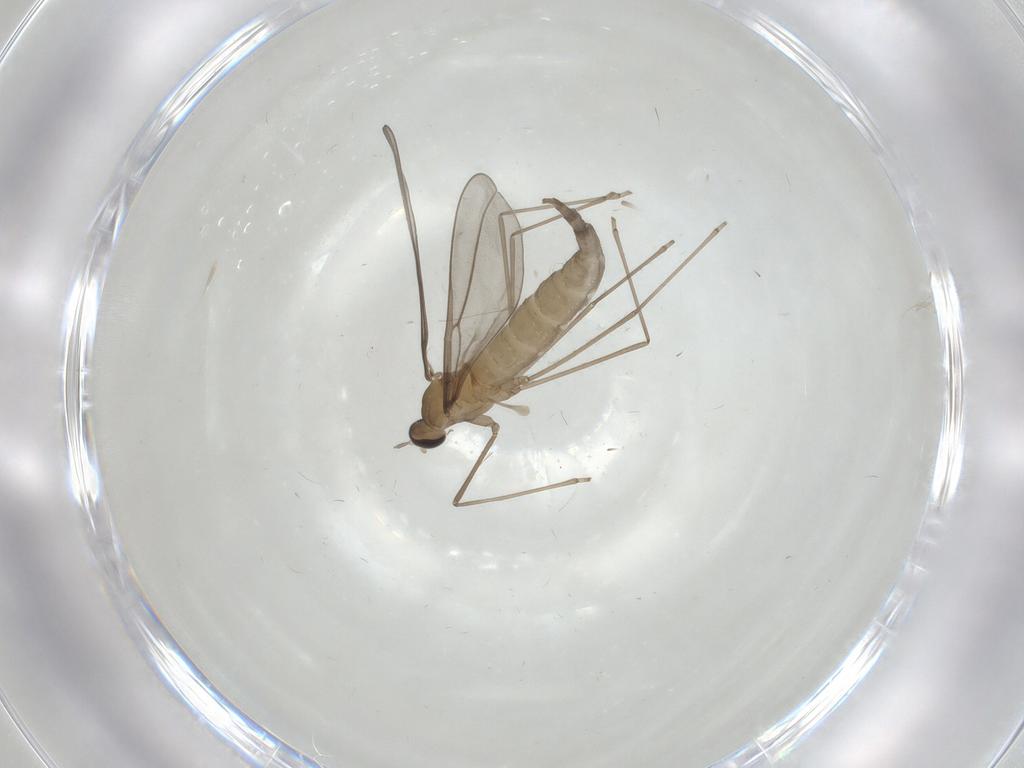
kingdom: Animalia
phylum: Arthropoda
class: Insecta
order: Diptera
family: Cecidomyiidae
